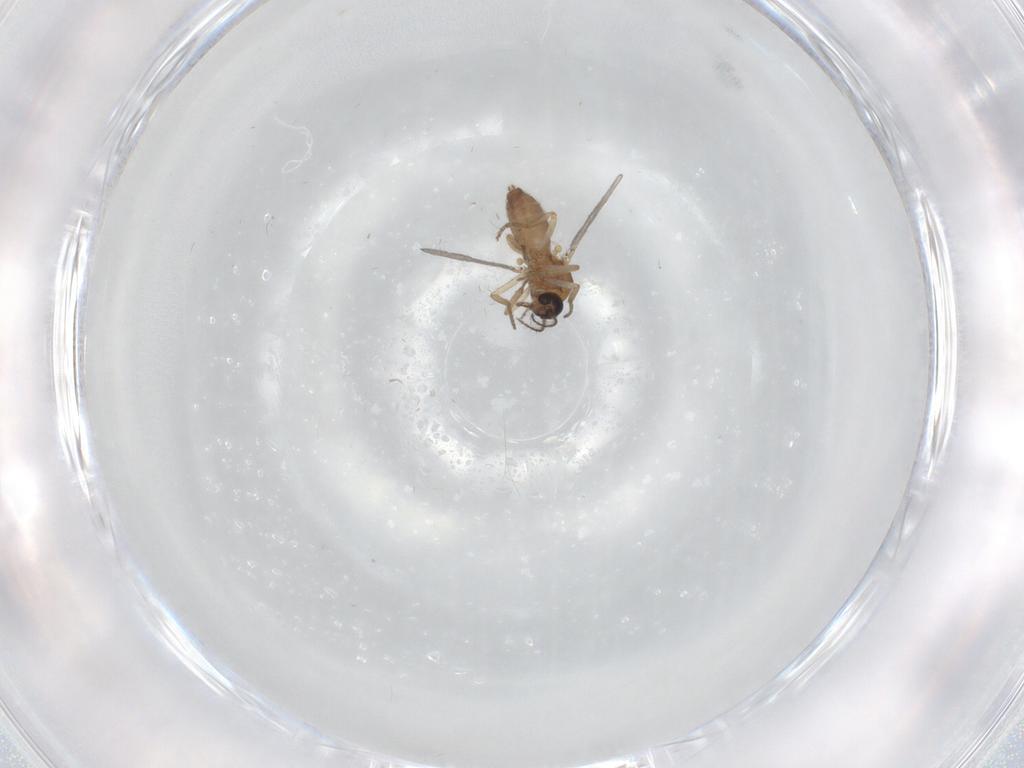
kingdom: Animalia
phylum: Arthropoda
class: Insecta
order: Diptera
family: Ceratopogonidae
